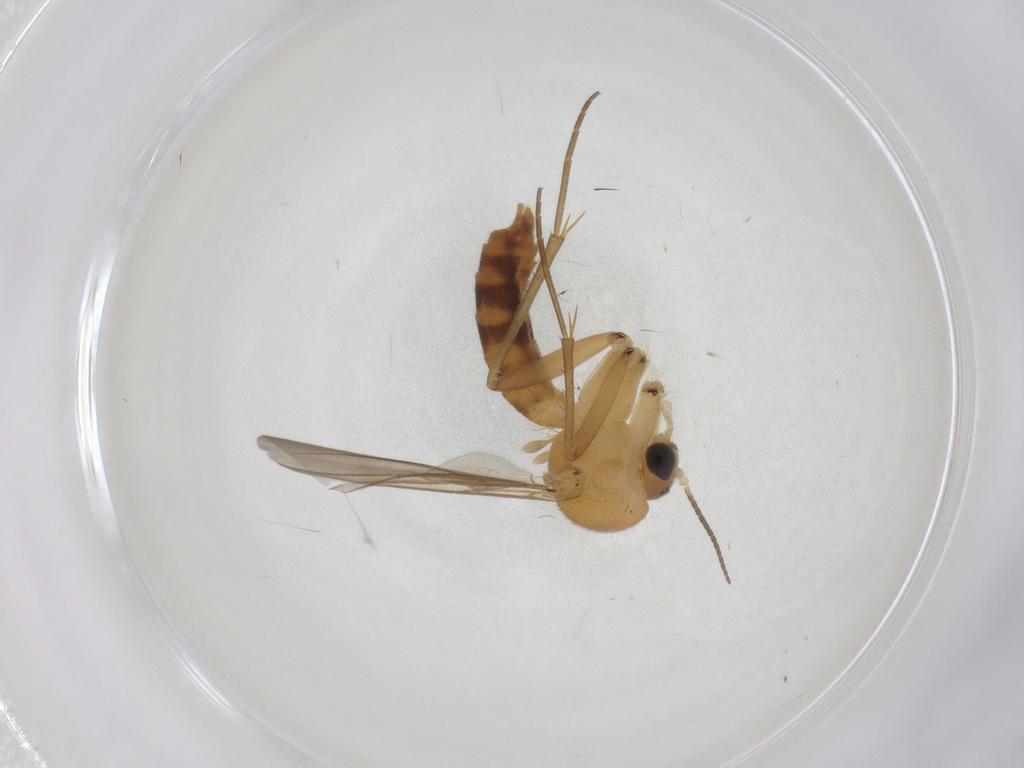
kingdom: Animalia
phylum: Arthropoda
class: Insecta
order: Diptera
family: Mycetophilidae
